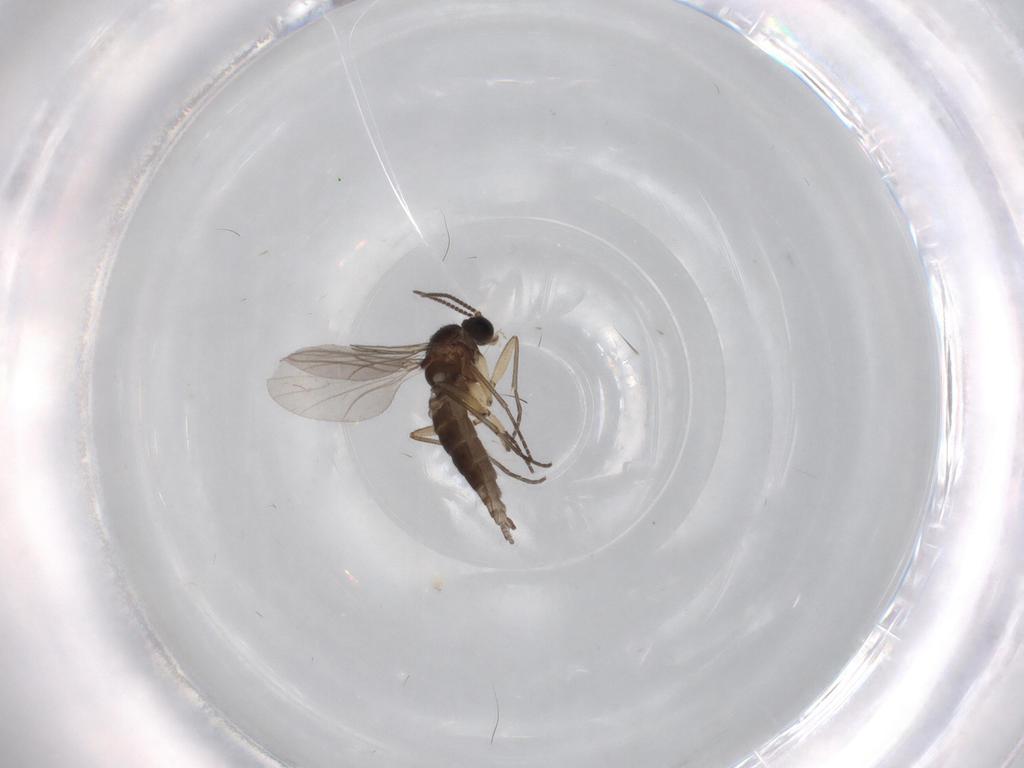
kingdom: Animalia
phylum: Arthropoda
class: Insecta
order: Diptera
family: Sciaridae
